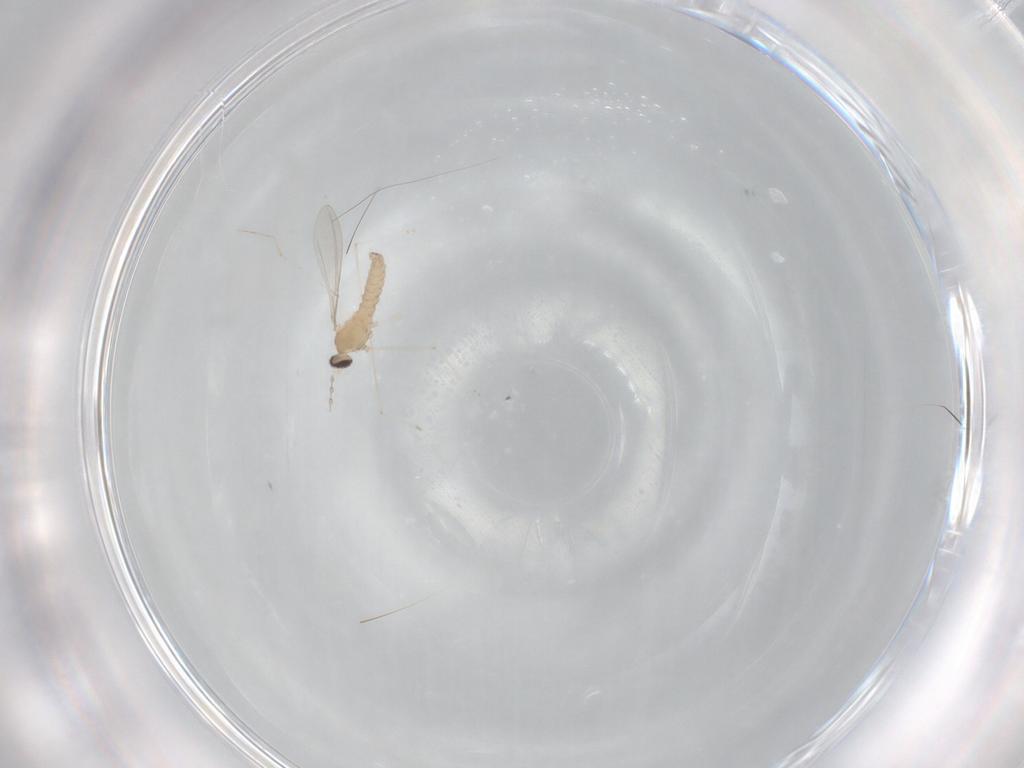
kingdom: Animalia
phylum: Arthropoda
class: Insecta
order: Diptera
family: Cecidomyiidae
